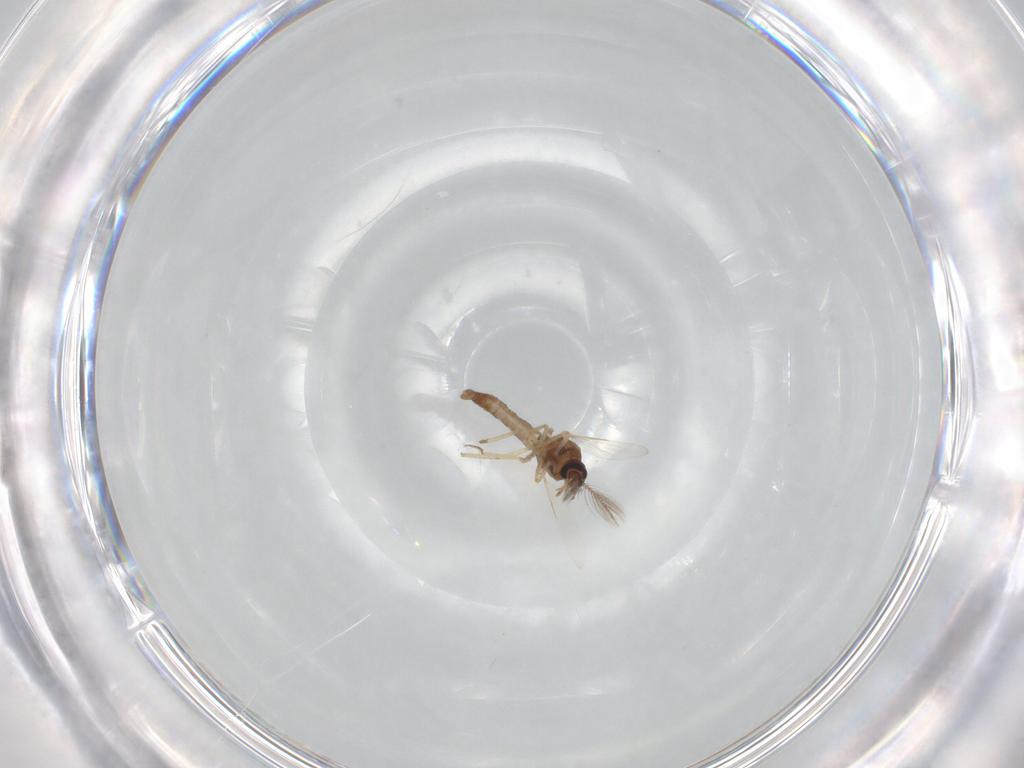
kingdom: Animalia
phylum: Arthropoda
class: Insecta
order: Diptera
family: Ceratopogonidae
